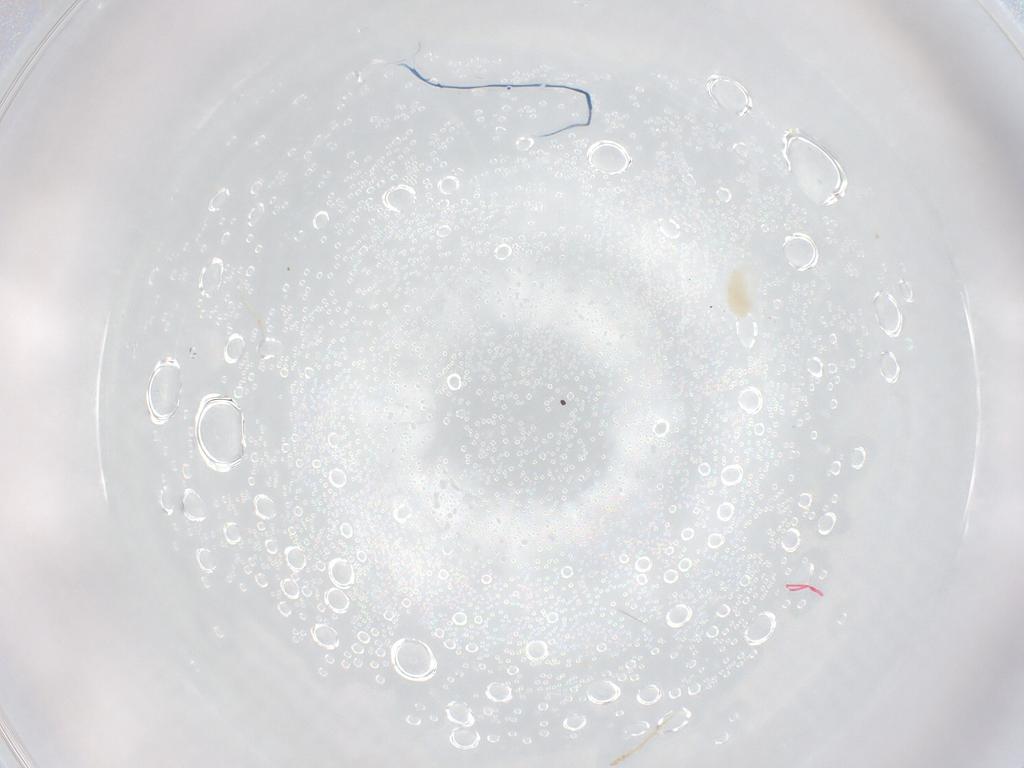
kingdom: Animalia
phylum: Arthropoda
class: Arachnida
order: Trombidiformes
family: Eupodidae
